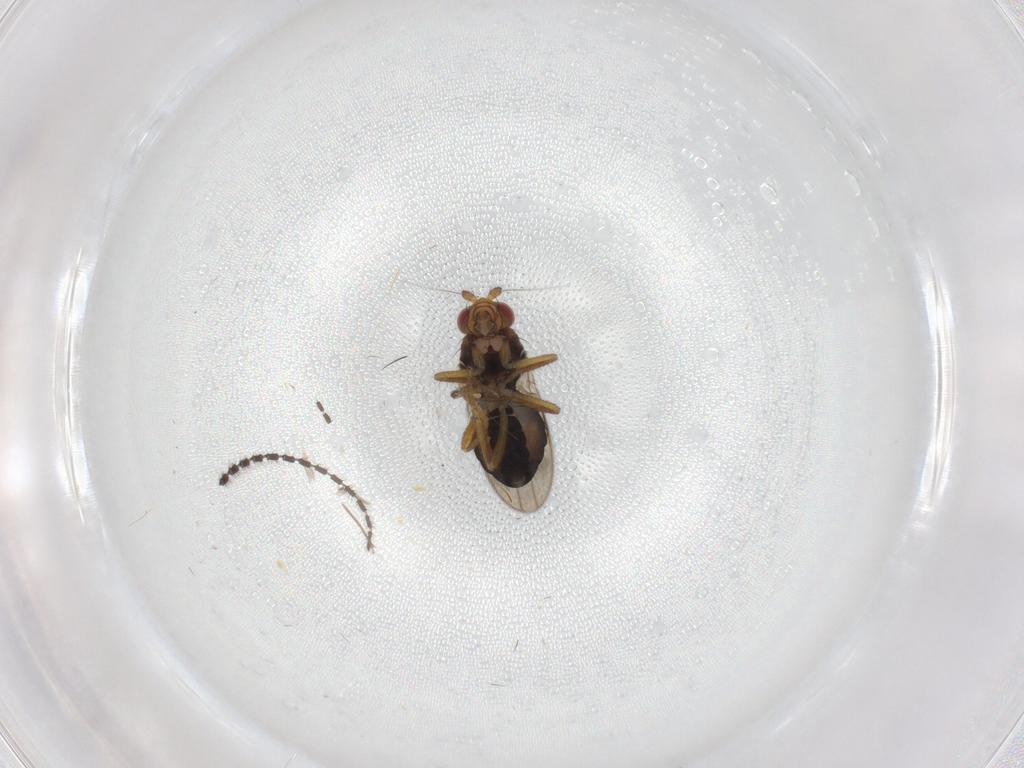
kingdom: Animalia
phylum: Arthropoda
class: Insecta
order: Diptera
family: Sphaeroceridae
